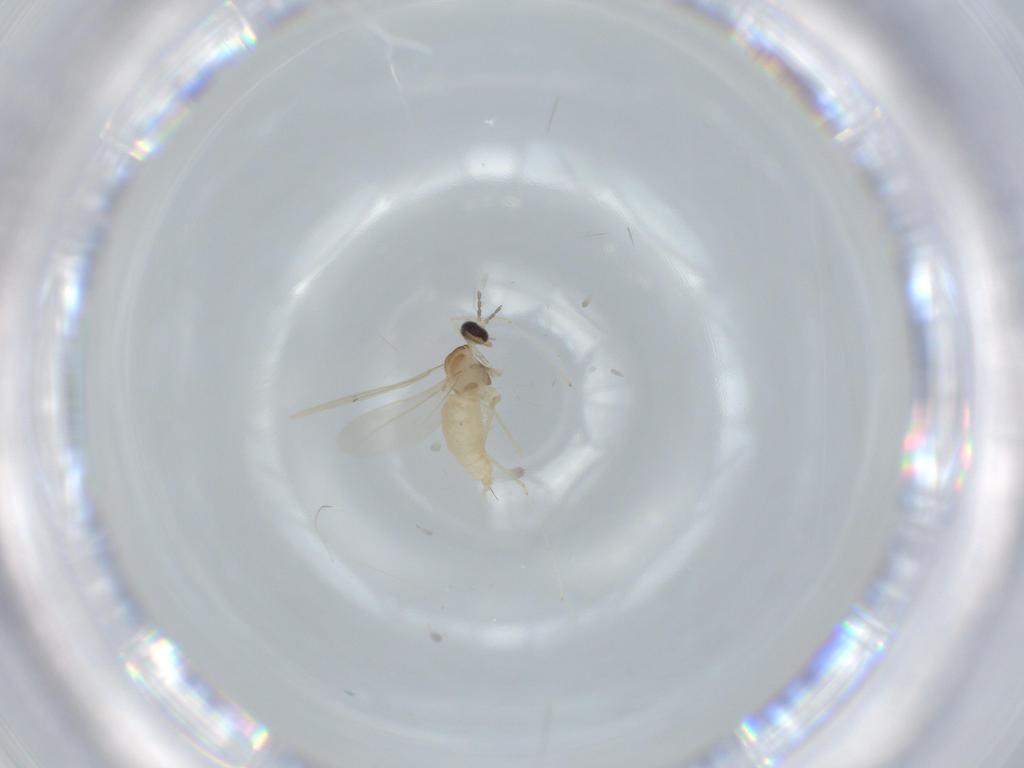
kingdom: Animalia
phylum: Arthropoda
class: Insecta
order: Diptera
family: Cecidomyiidae
